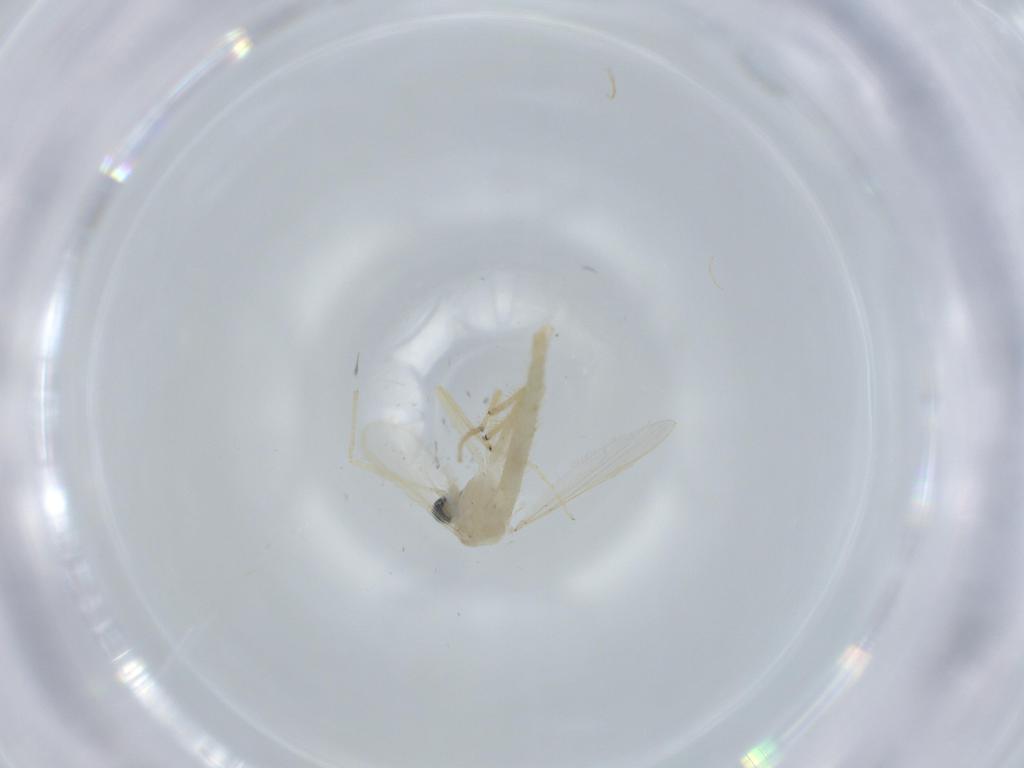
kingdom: Animalia
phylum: Arthropoda
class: Insecta
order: Diptera
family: Chironomidae
